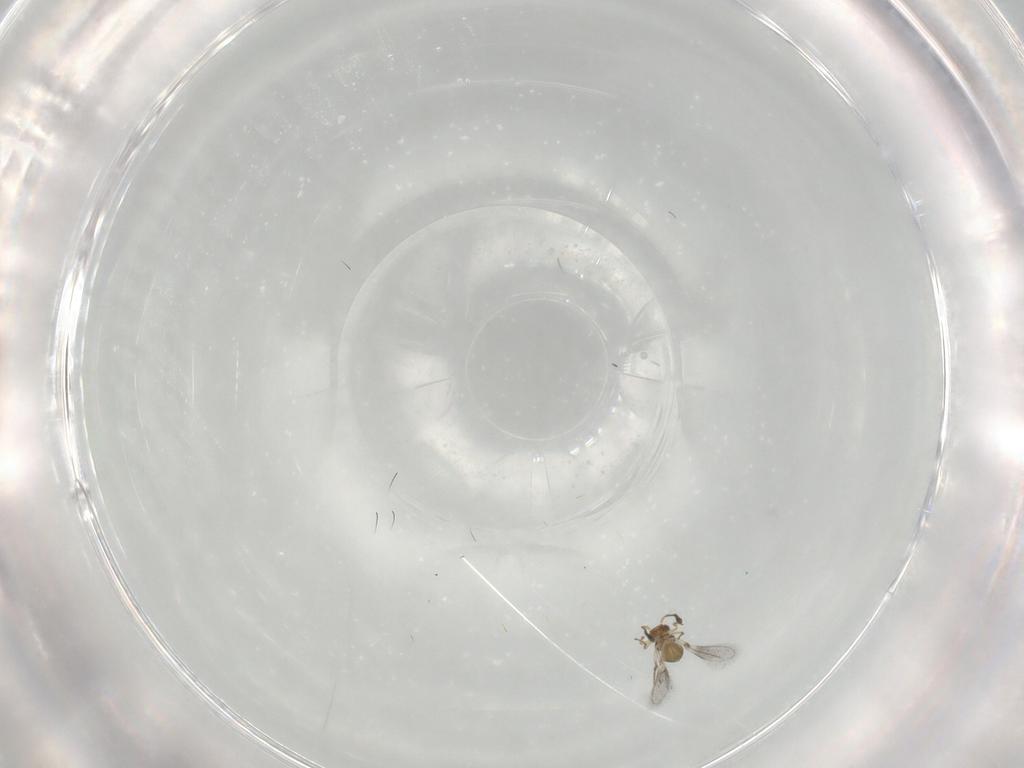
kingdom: Animalia
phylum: Arthropoda
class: Insecta
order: Hymenoptera
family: Mymaridae
